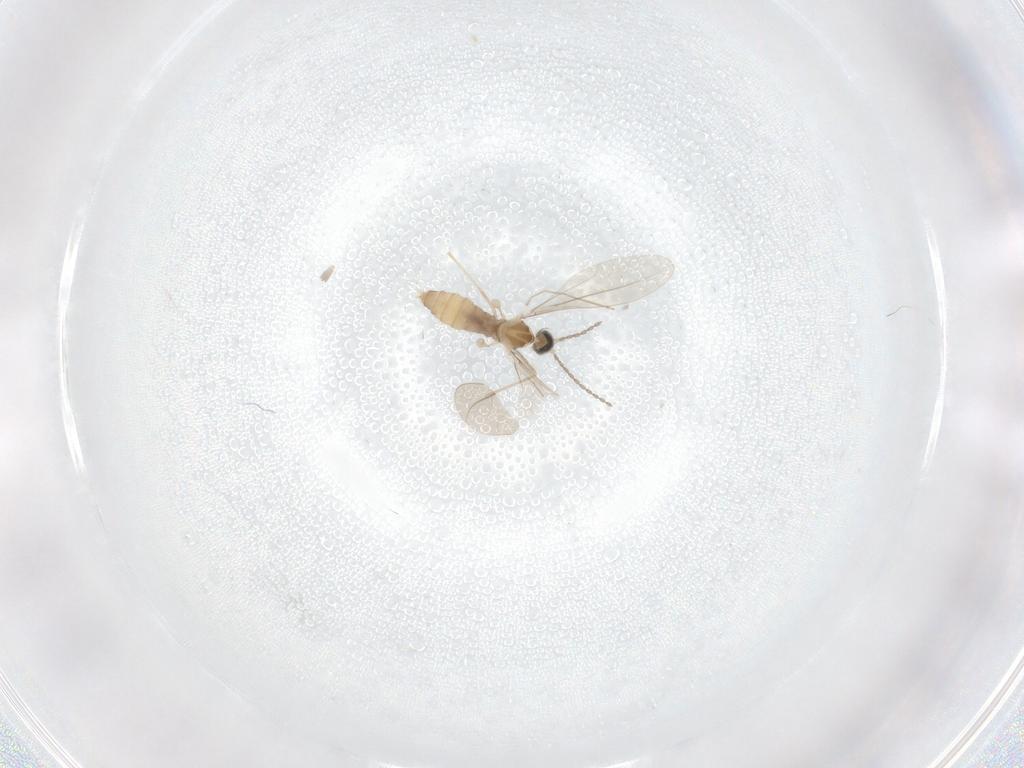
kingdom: Animalia
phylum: Arthropoda
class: Insecta
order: Diptera
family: Cecidomyiidae
